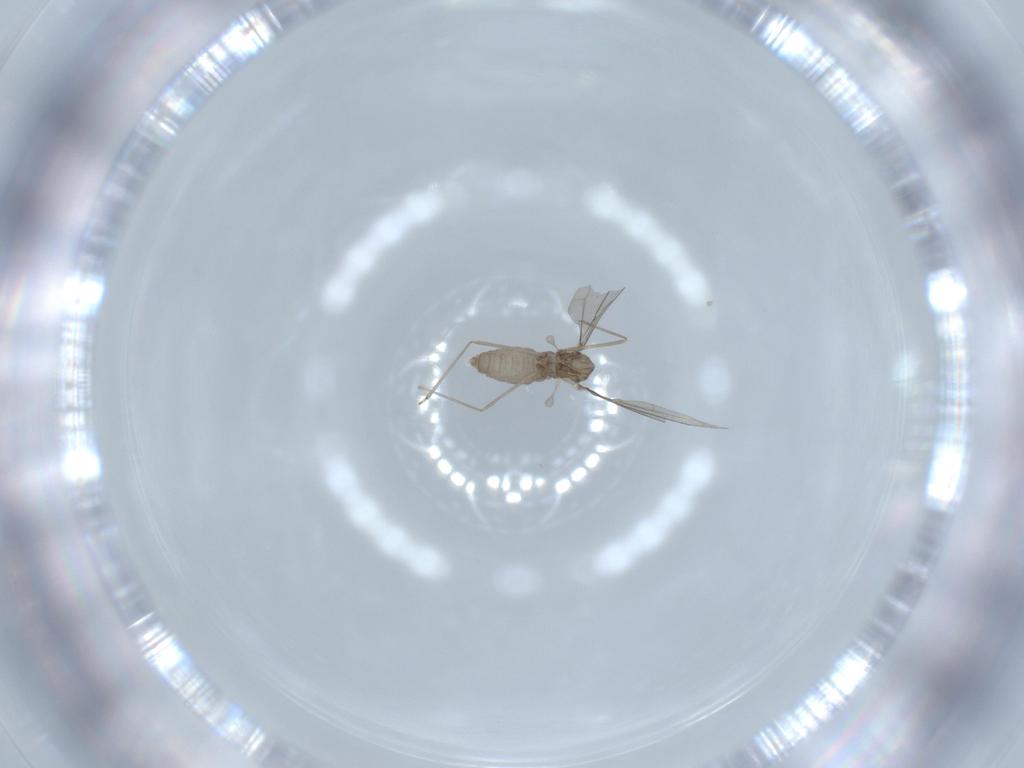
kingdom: Animalia
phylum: Arthropoda
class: Insecta
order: Diptera
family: Cecidomyiidae
